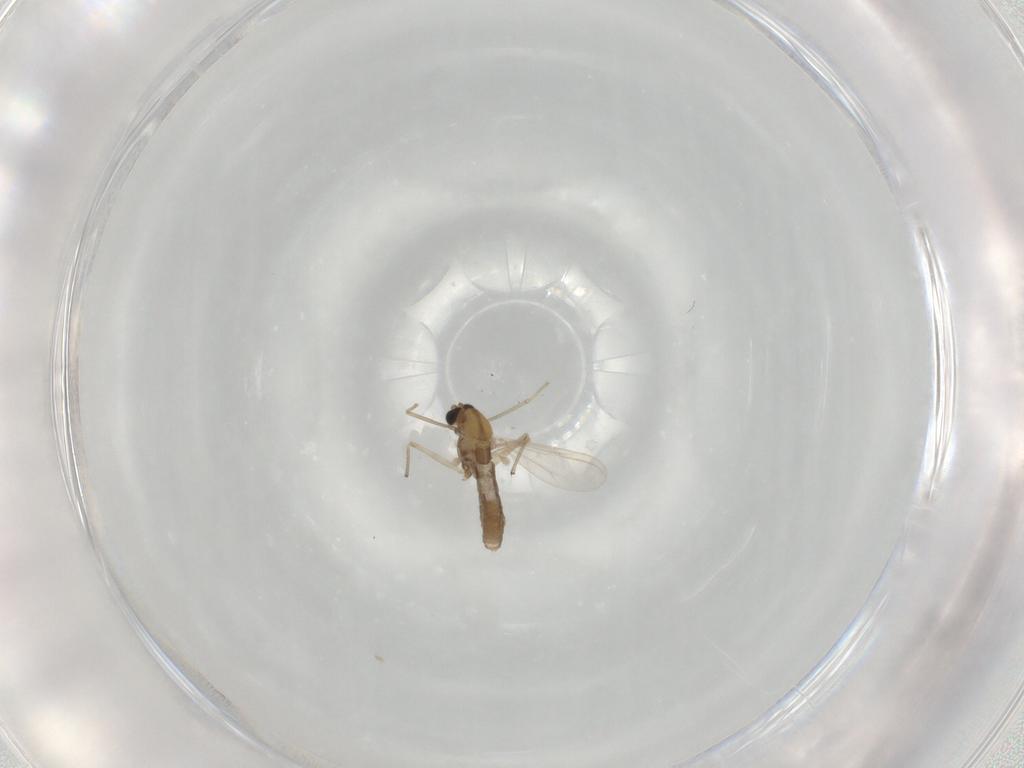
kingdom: Animalia
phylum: Arthropoda
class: Insecta
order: Diptera
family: Chironomidae
